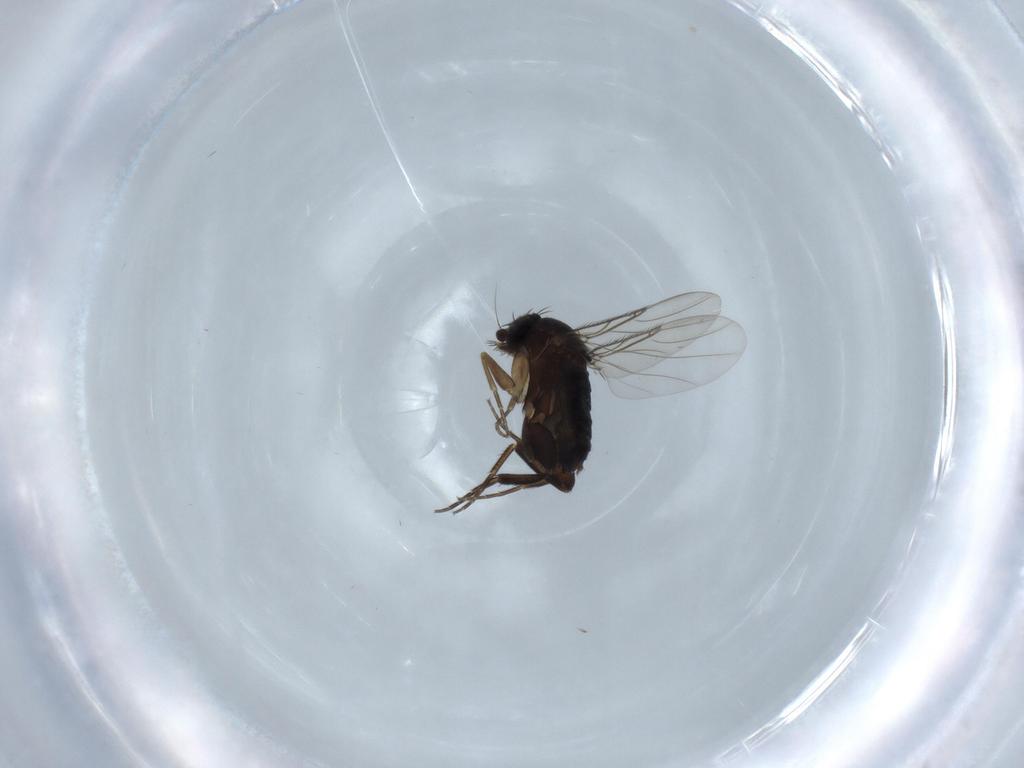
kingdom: Animalia
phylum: Arthropoda
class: Insecta
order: Diptera
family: Phoridae
